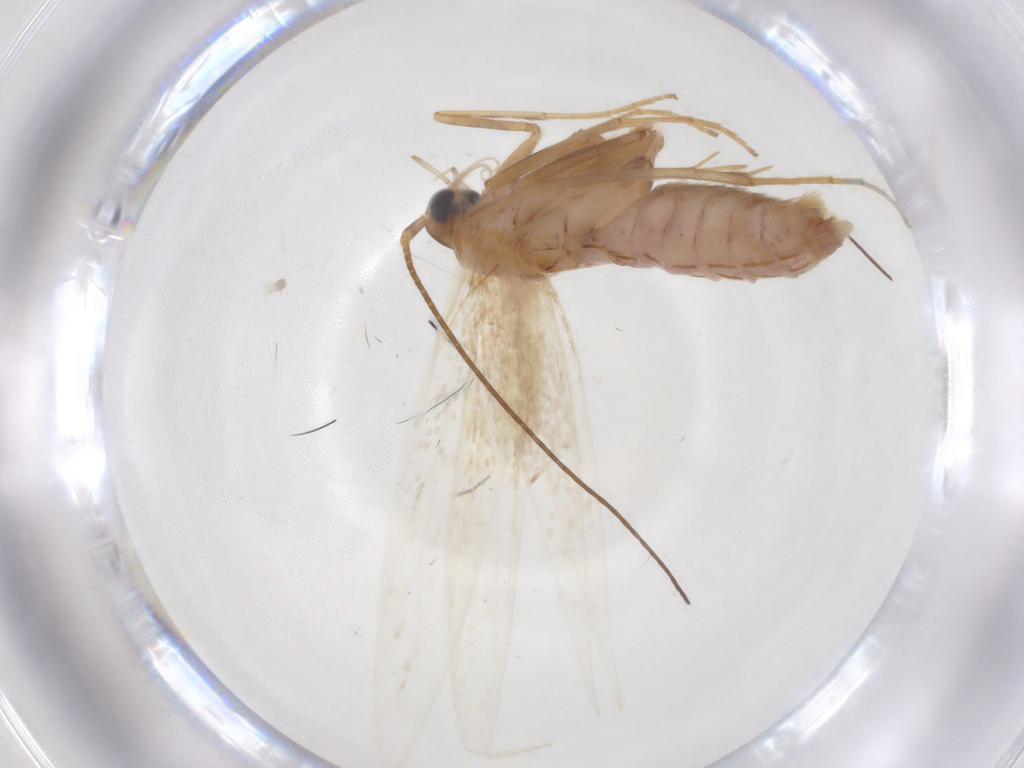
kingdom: Animalia
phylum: Arthropoda
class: Insecta
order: Lepidoptera
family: Coleophoridae
